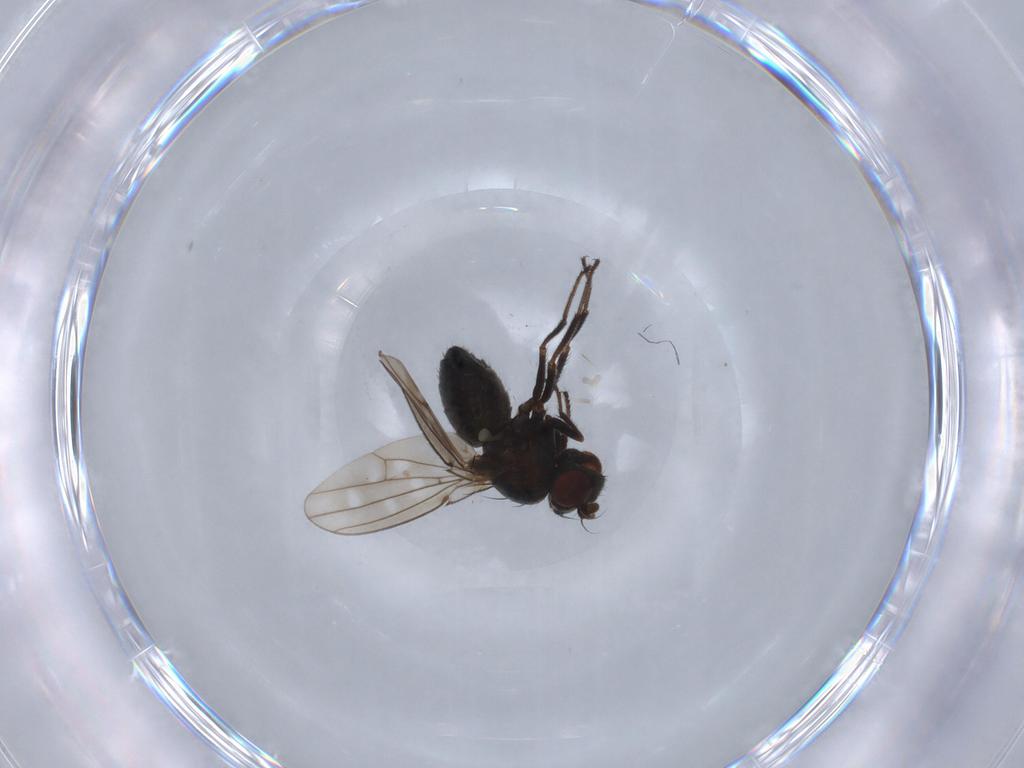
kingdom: Animalia
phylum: Arthropoda
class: Insecta
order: Diptera
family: Ephydridae
